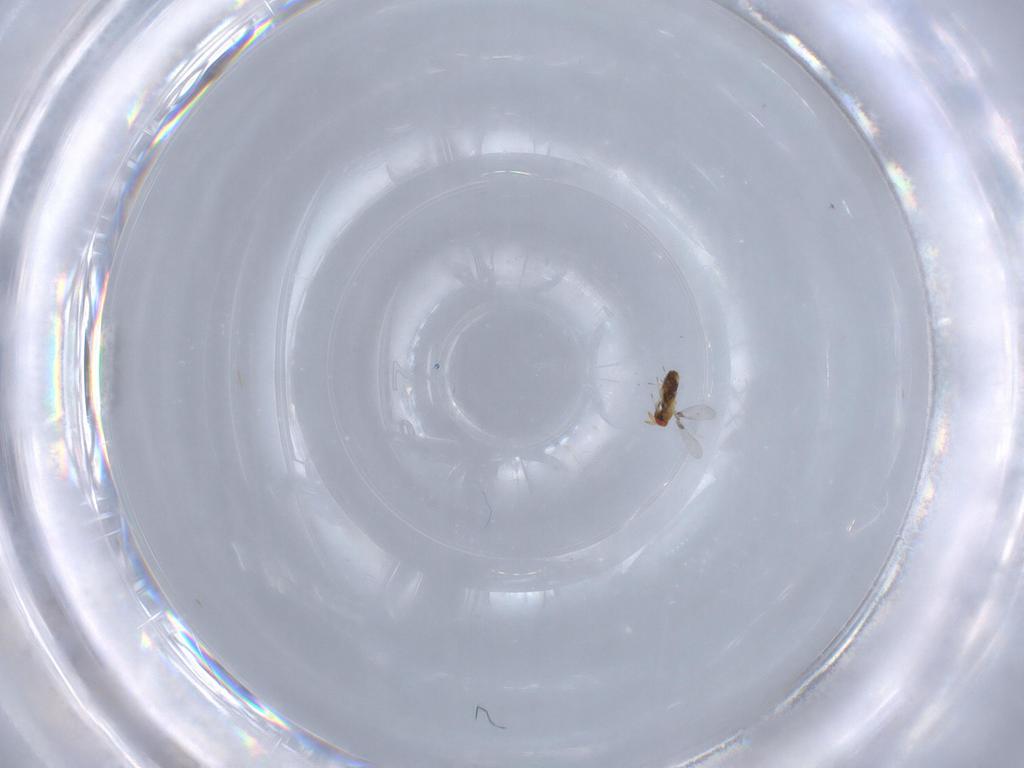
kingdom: Animalia
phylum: Arthropoda
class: Insecta
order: Hymenoptera
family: Trichogrammatidae
